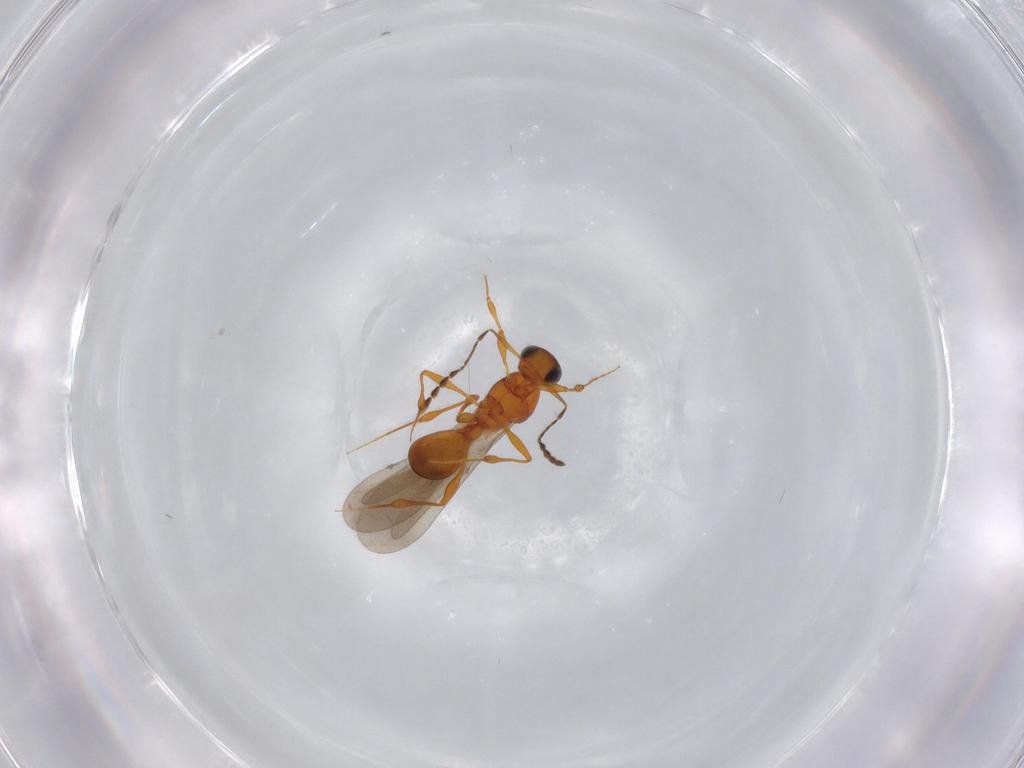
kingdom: Animalia
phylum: Arthropoda
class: Insecta
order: Hymenoptera
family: Platygastridae
